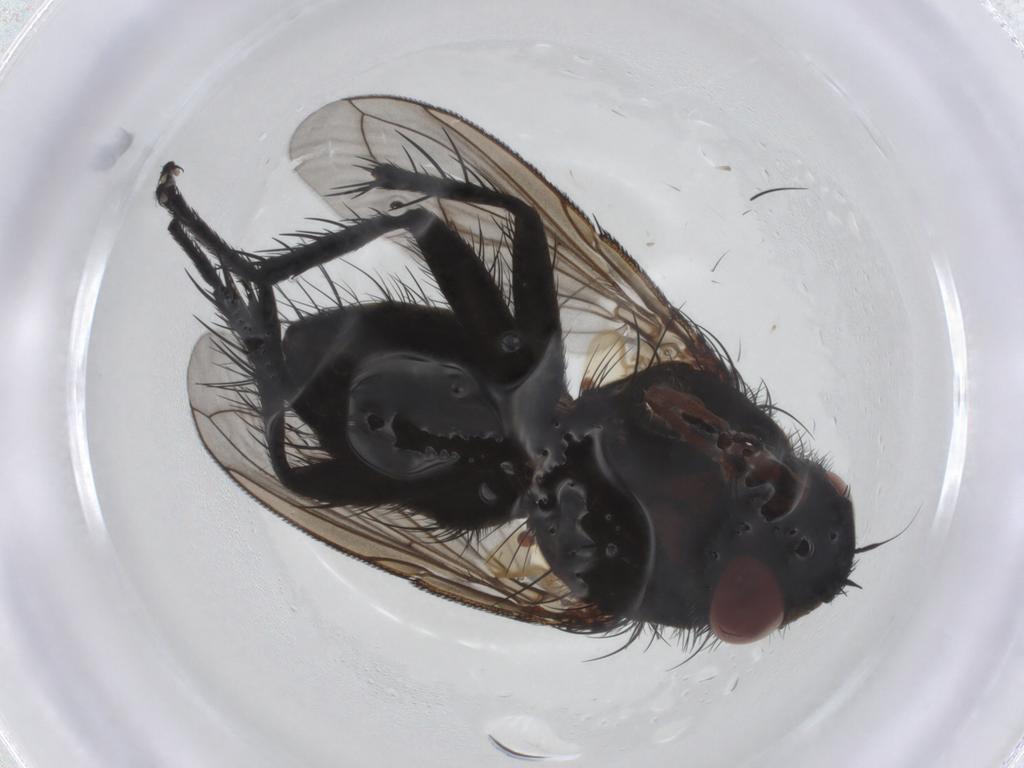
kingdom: Animalia
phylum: Arthropoda
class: Insecta
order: Diptera
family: Tachinidae
